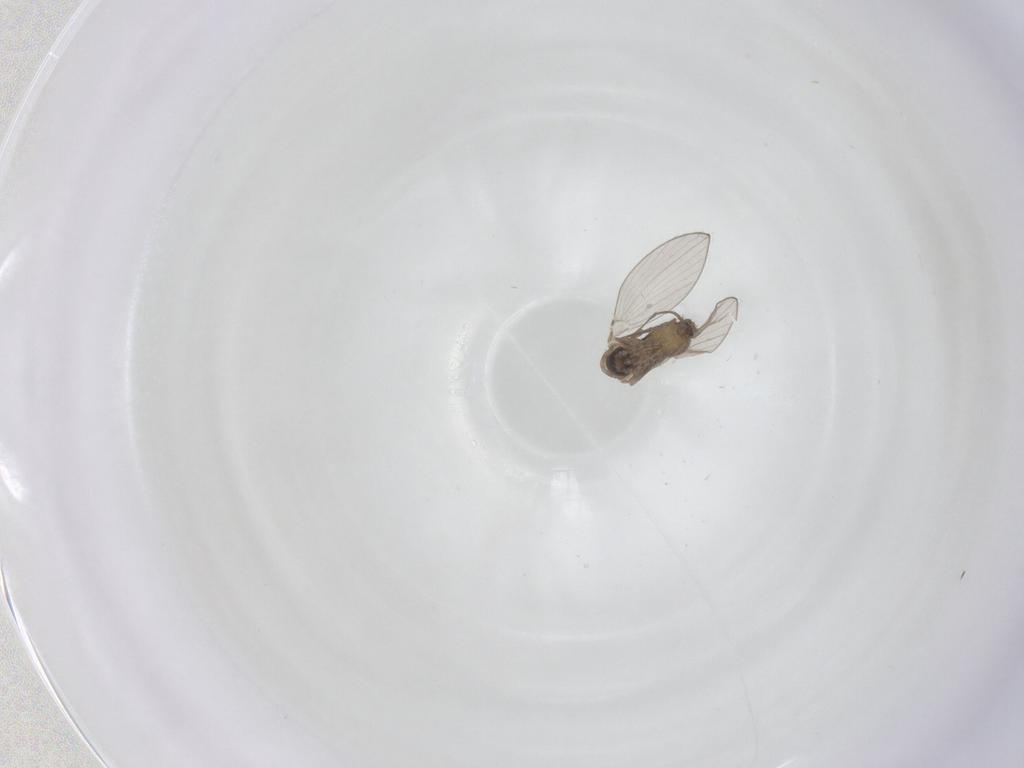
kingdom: Animalia
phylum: Arthropoda
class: Insecta
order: Diptera
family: Psychodidae
